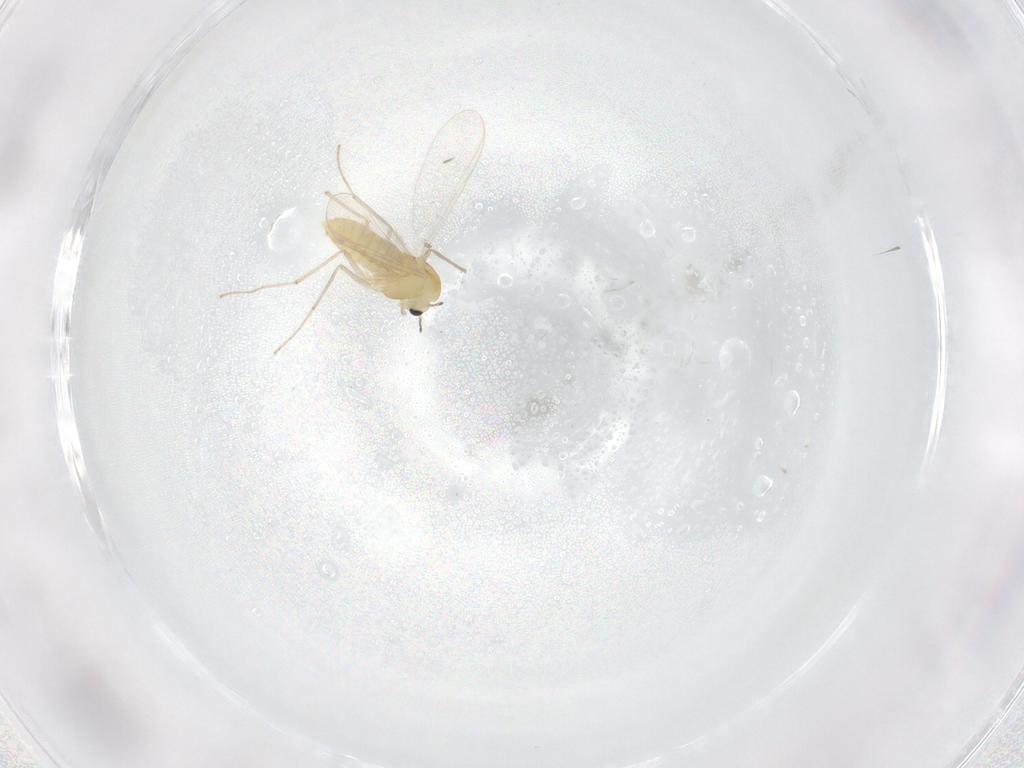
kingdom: Animalia
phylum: Arthropoda
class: Insecta
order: Diptera
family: Chironomidae
